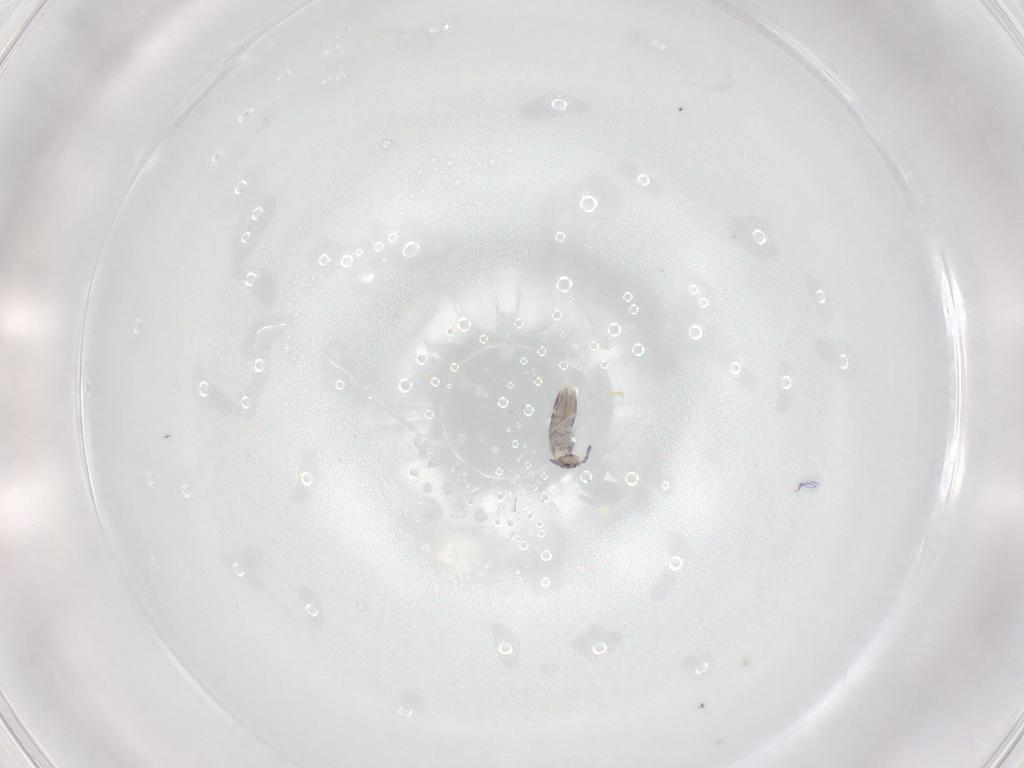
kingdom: Animalia
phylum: Arthropoda
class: Collembola
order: Entomobryomorpha
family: Entomobryidae
